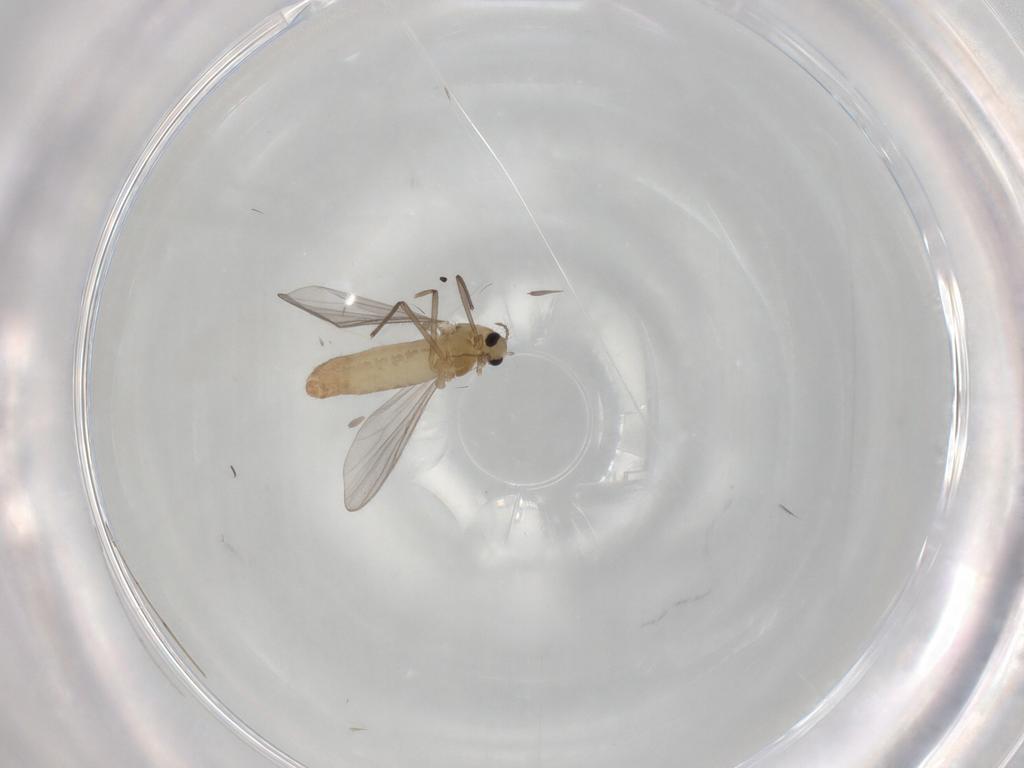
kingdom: Animalia
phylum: Arthropoda
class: Insecta
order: Diptera
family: Chironomidae
